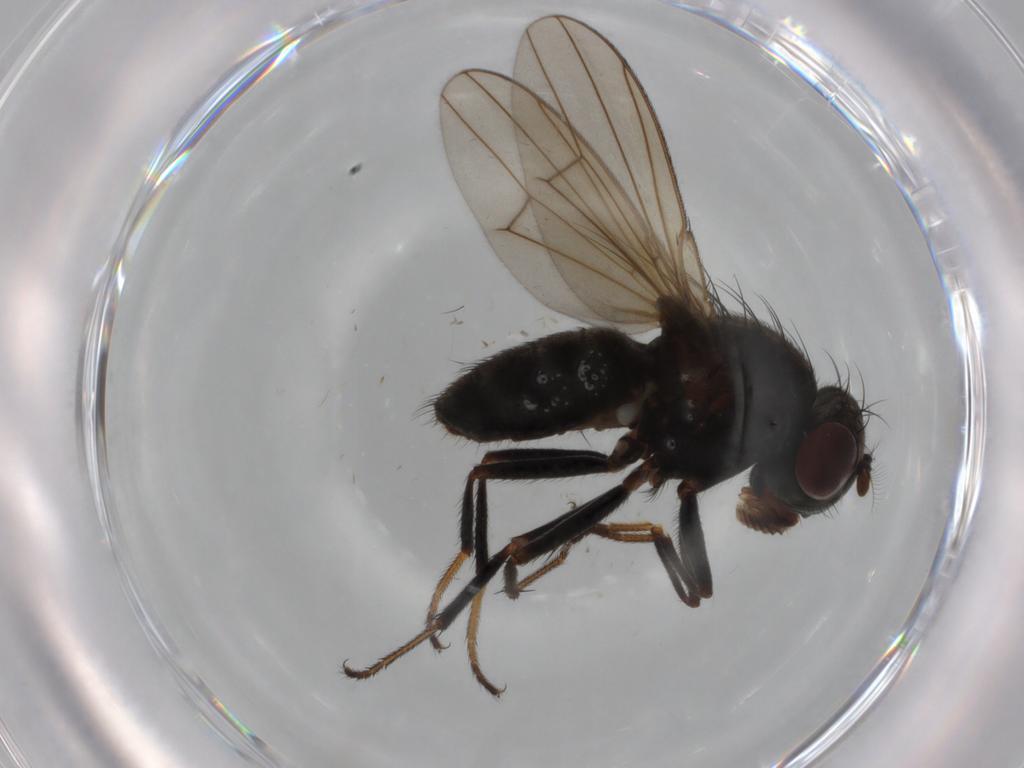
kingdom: Animalia
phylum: Arthropoda
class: Insecta
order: Diptera
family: Ephydridae
